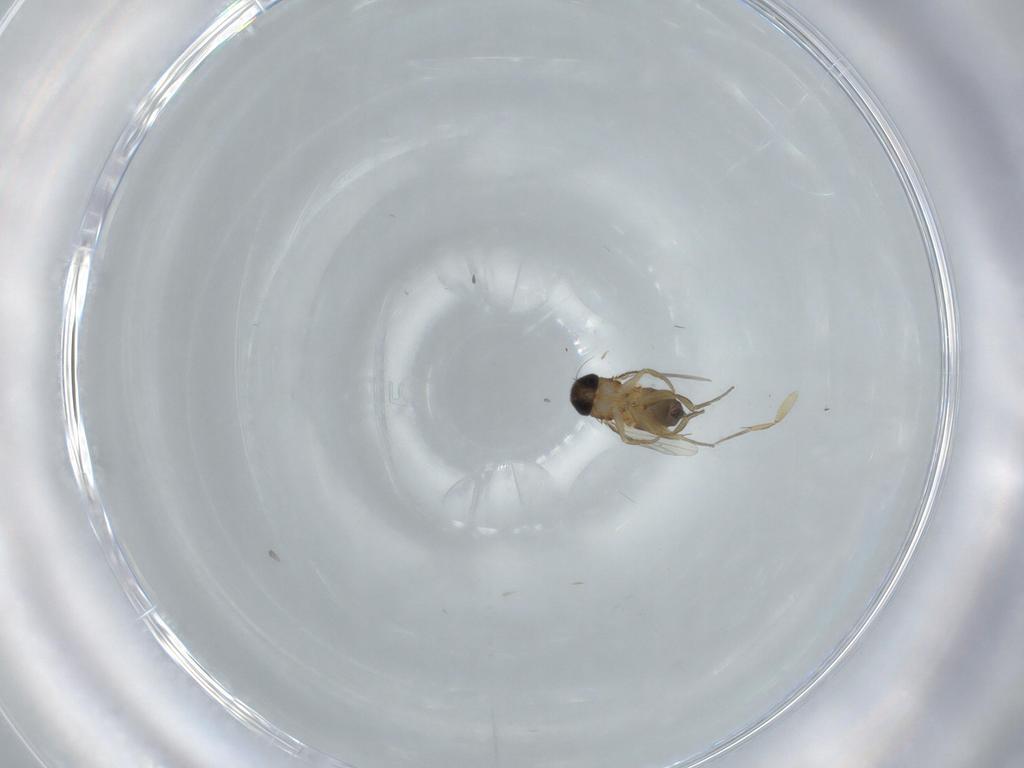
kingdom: Animalia
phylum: Arthropoda
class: Insecta
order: Diptera
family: Phoridae
